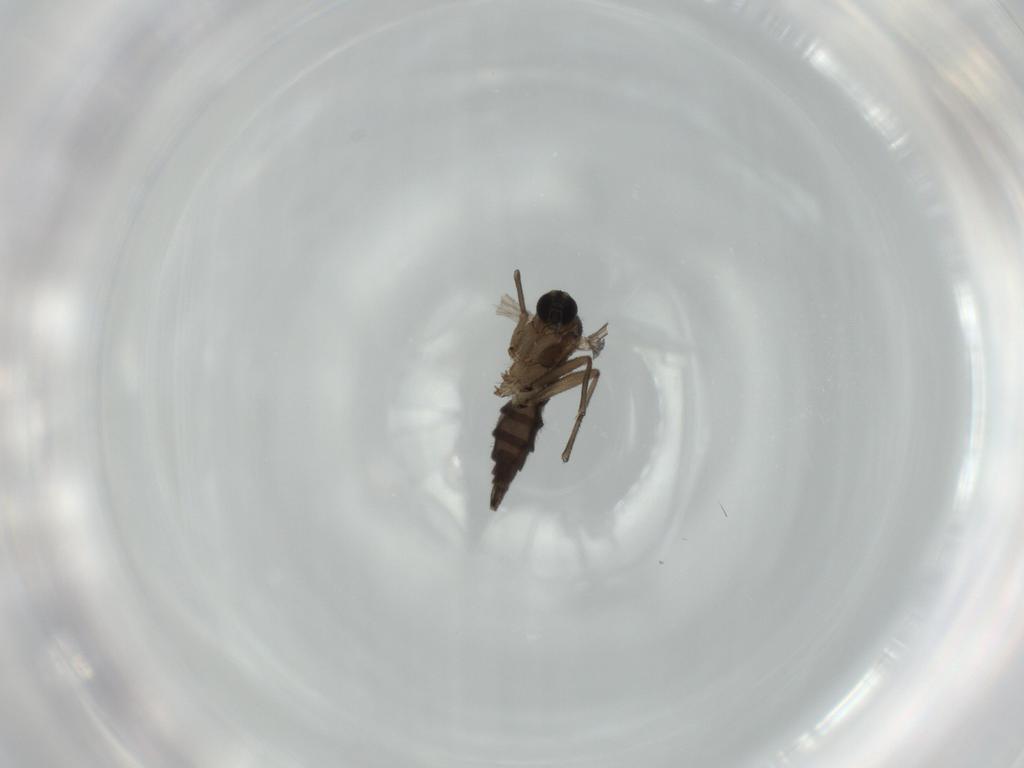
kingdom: Animalia
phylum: Arthropoda
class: Insecta
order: Diptera
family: Sciaridae
